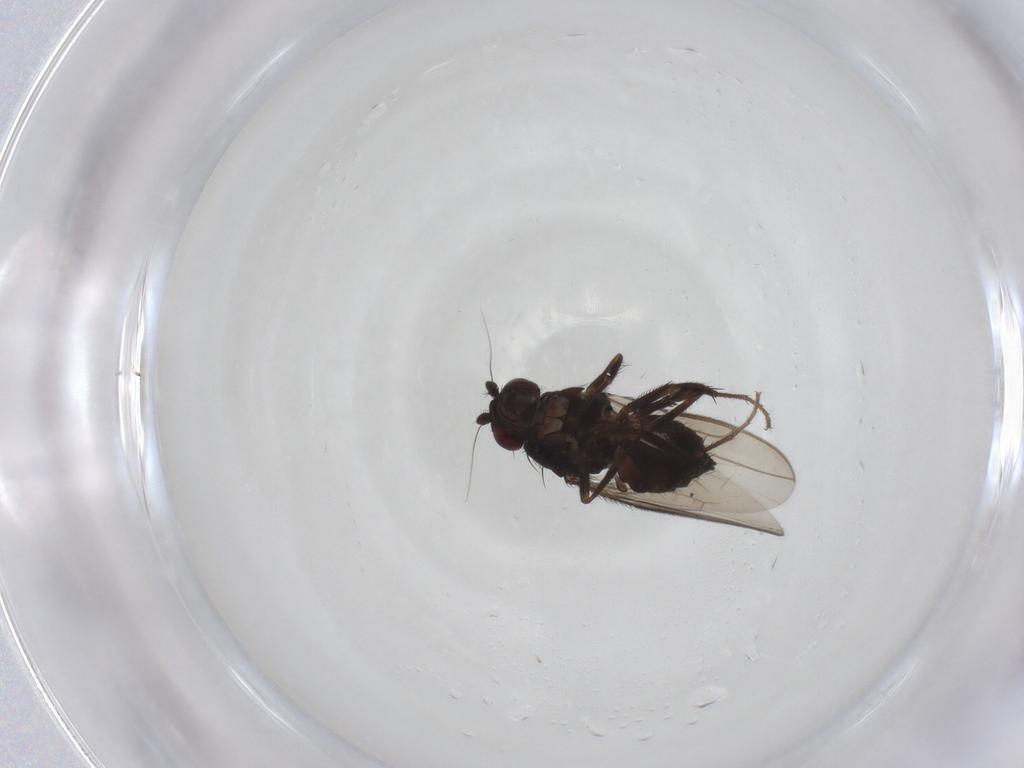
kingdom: Animalia
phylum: Arthropoda
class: Insecta
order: Diptera
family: Sphaeroceridae
